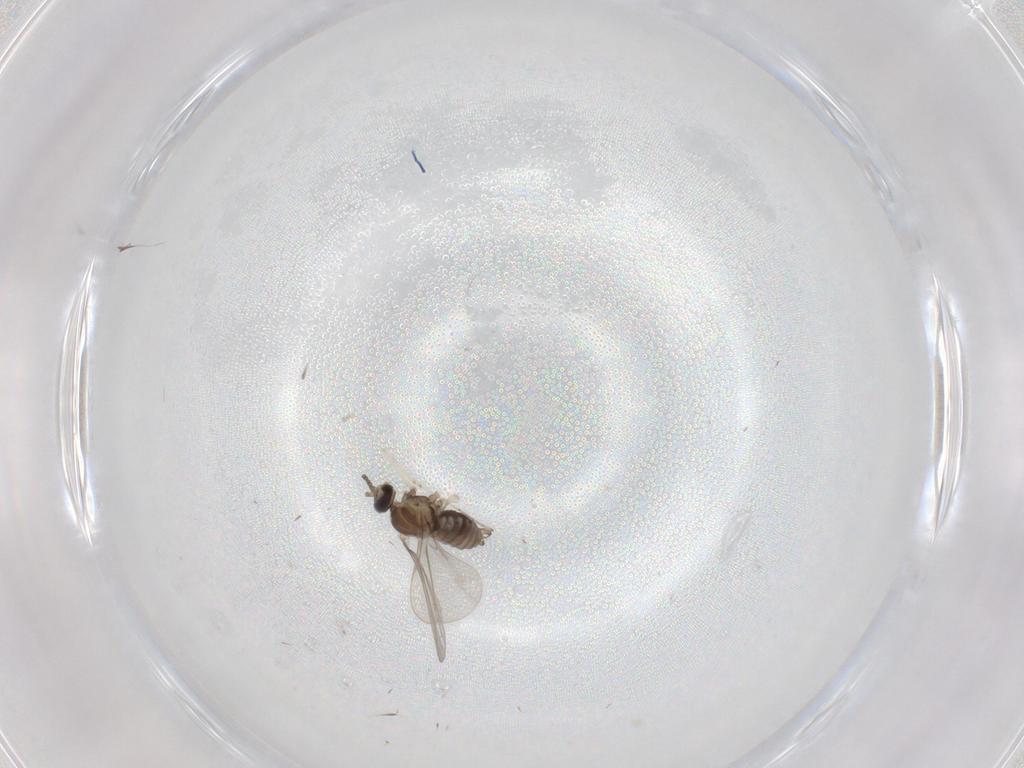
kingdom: Animalia
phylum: Arthropoda
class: Insecta
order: Diptera
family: Cecidomyiidae
